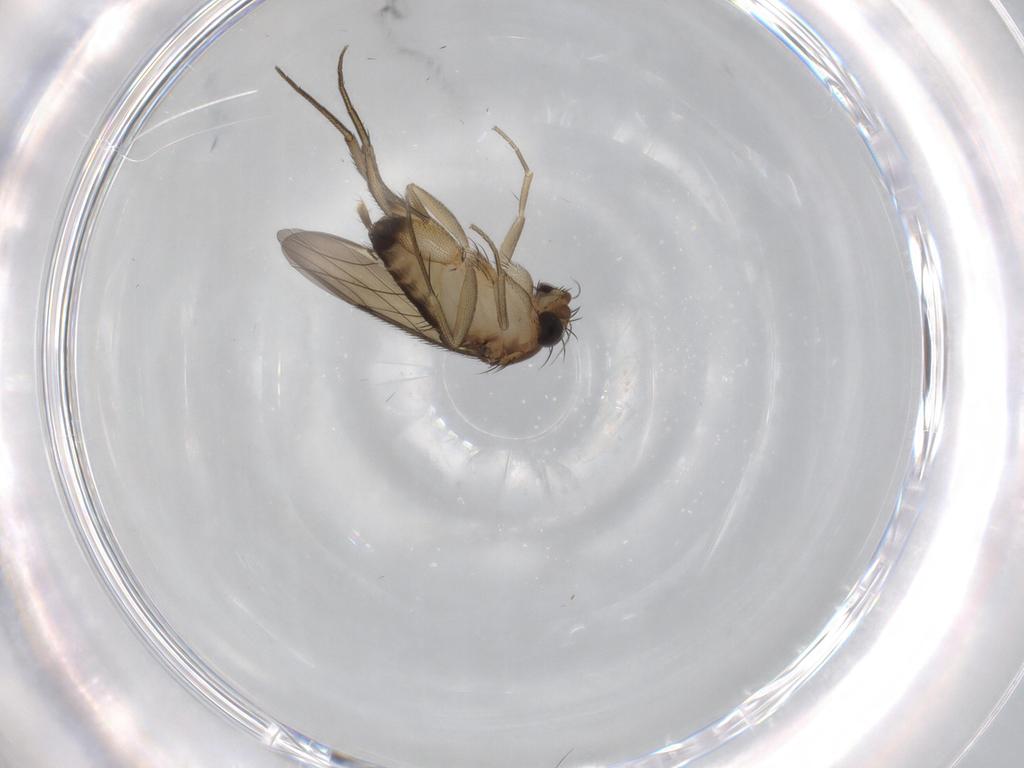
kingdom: Animalia
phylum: Arthropoda
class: Insecta
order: Diptera
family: Phoridae
